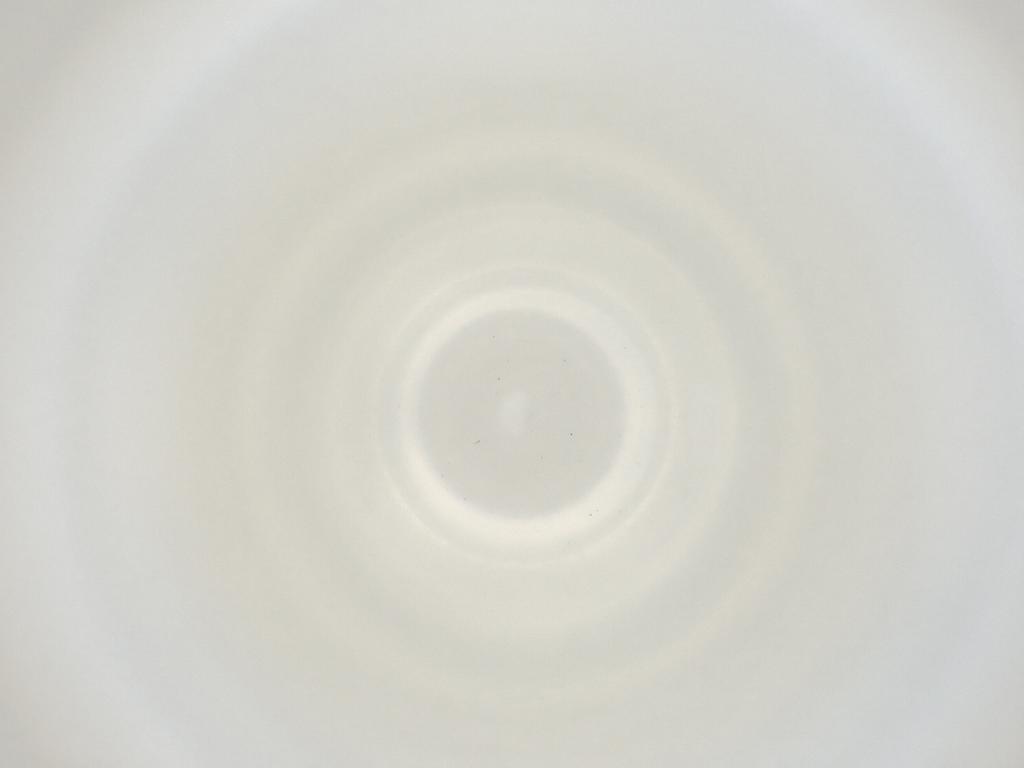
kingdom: Animalia
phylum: Arthropoda
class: Insecta
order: Diptera
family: Cecidomyiidae
